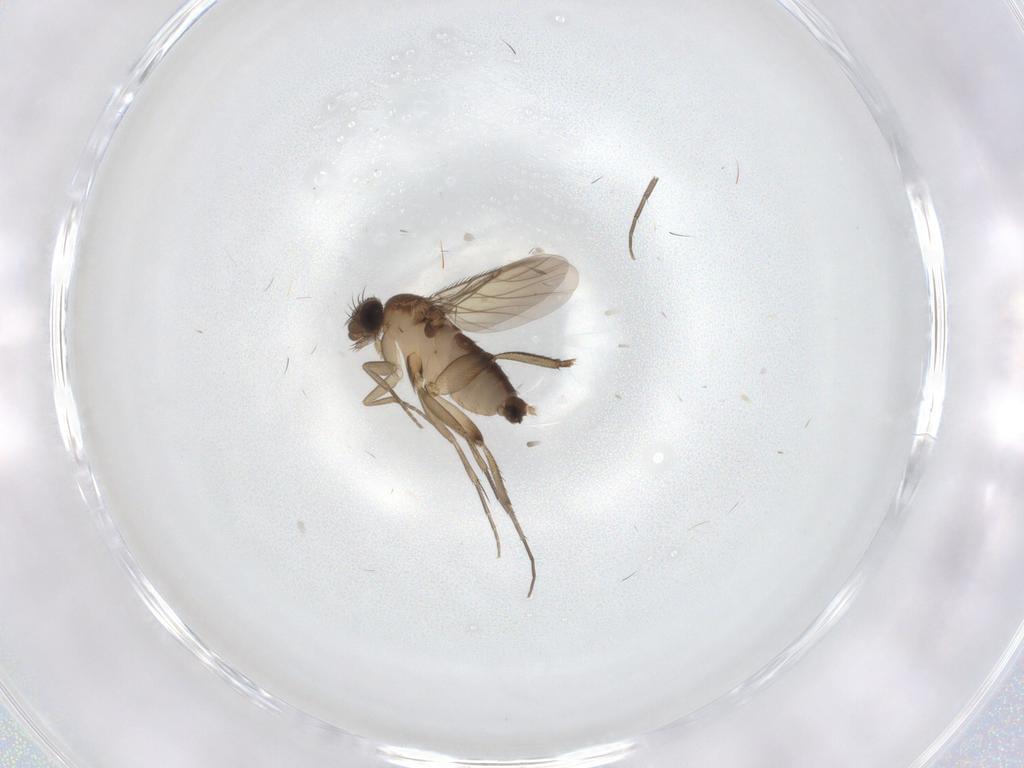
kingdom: Animalia
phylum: Arthropoda
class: Insecta
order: Diptera
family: Phoridae
